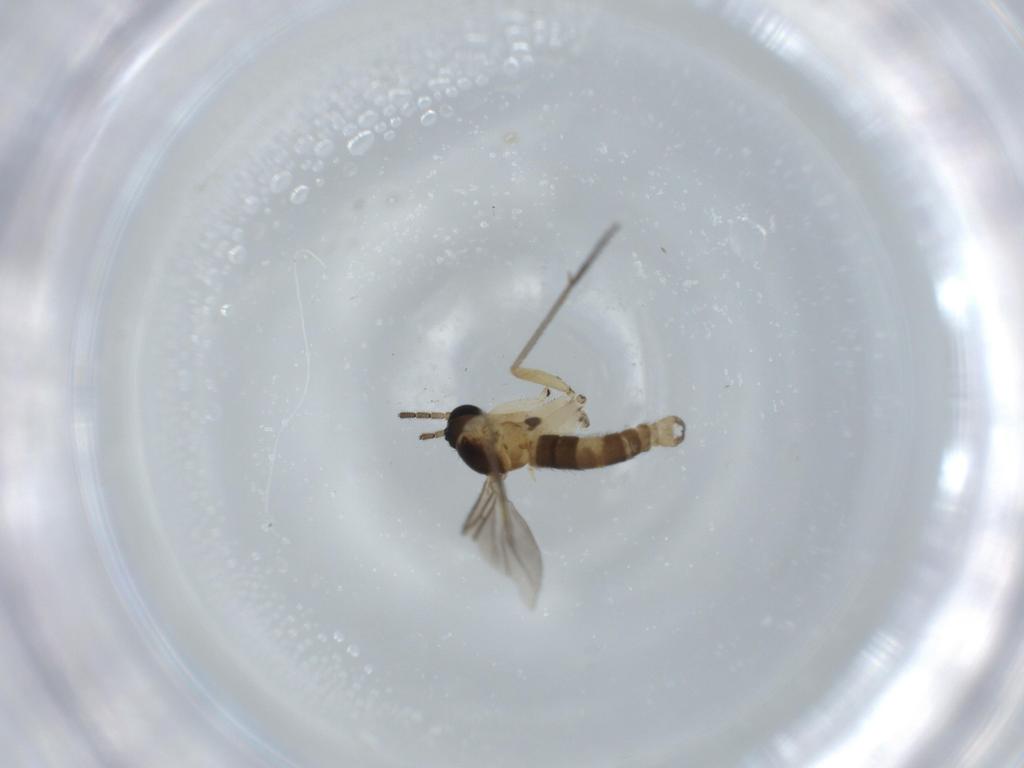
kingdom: Animalia
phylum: Arthropoda
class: Insecta
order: Diptera
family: Sciaridae
